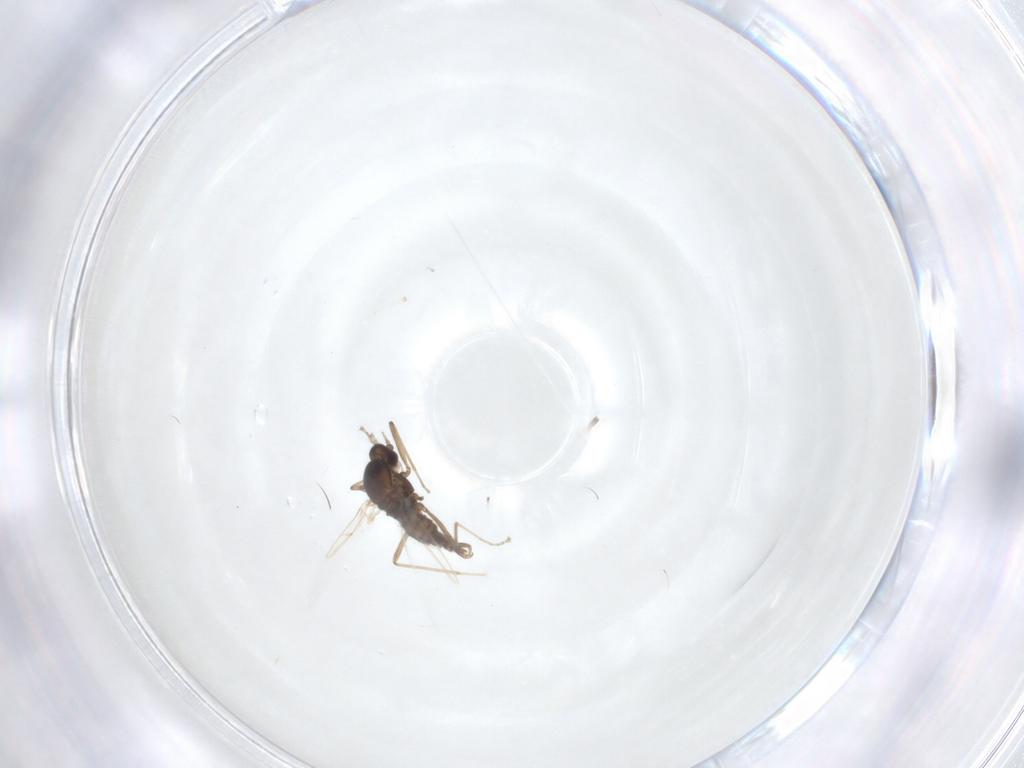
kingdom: Animalia
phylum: Arthropoda
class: Insecta
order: Diptera
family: Cecidomyiidae
